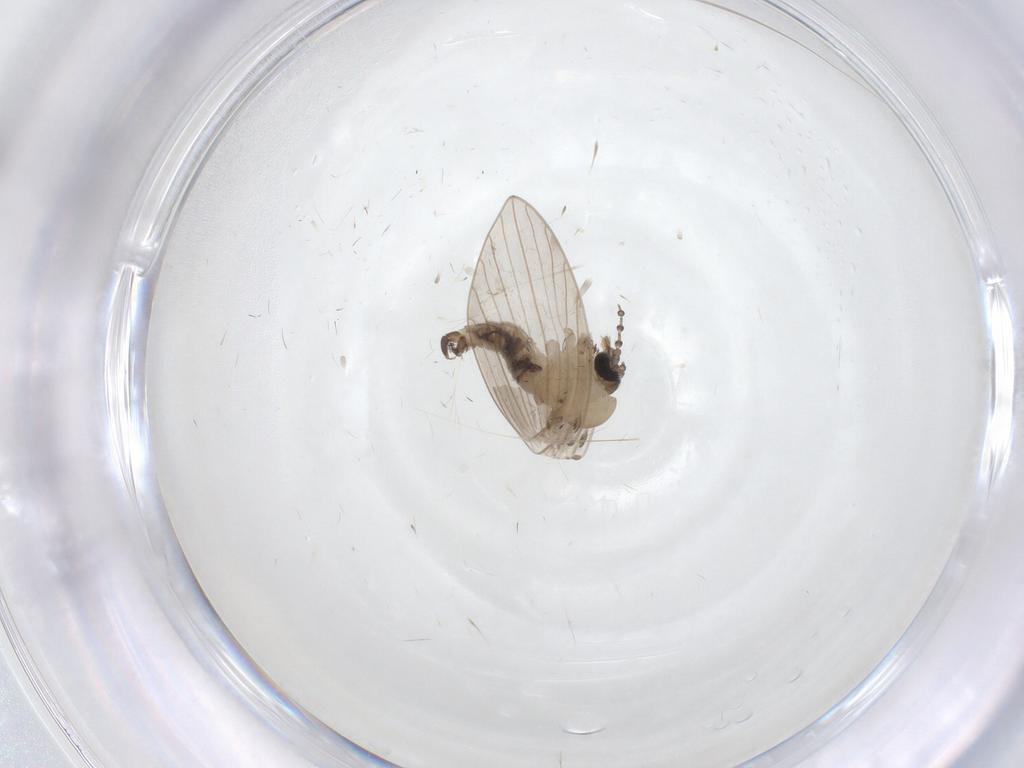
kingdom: Animalia
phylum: Arthropoda
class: Insecta
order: Diptera
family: Psychodidae
